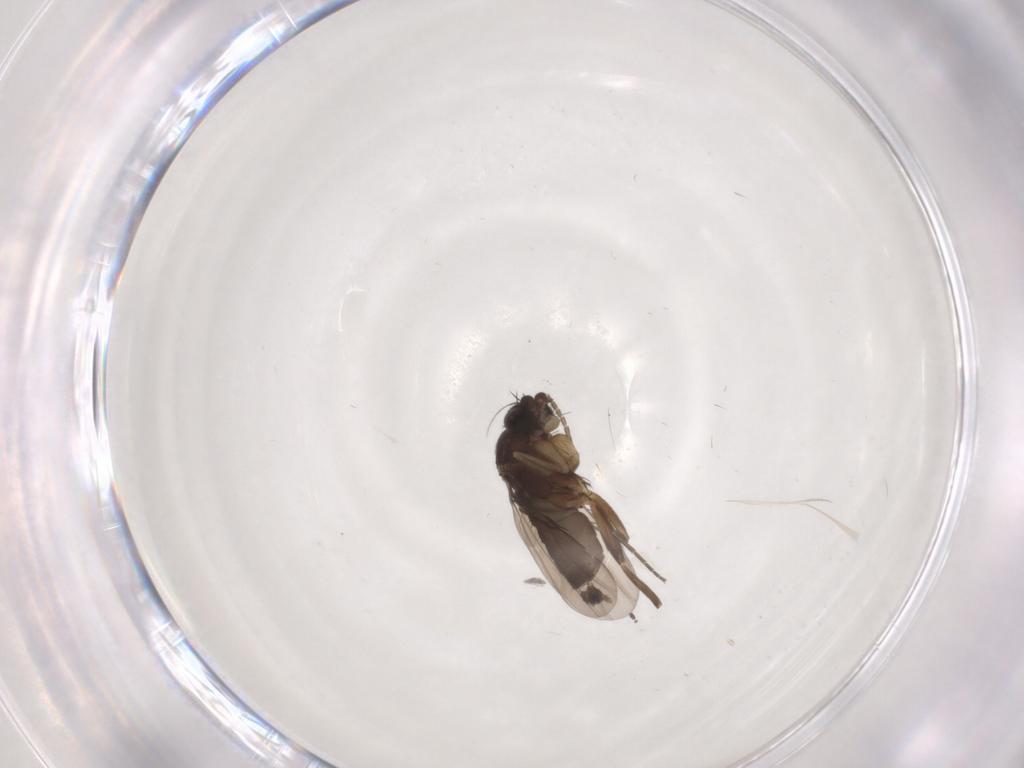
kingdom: Animalia
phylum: Arthropoda
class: Insecta
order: Diptera
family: Phoridae
